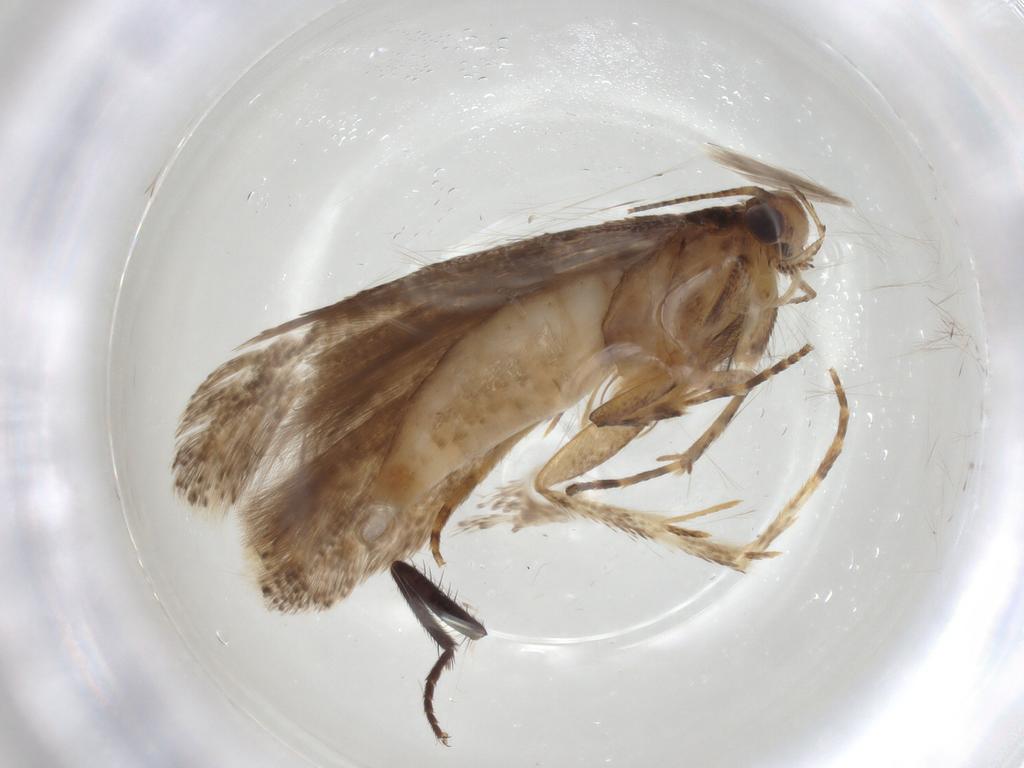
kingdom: Animalia
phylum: Arthropoda
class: Insecta
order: Lepidoptera
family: Gelechiidae
